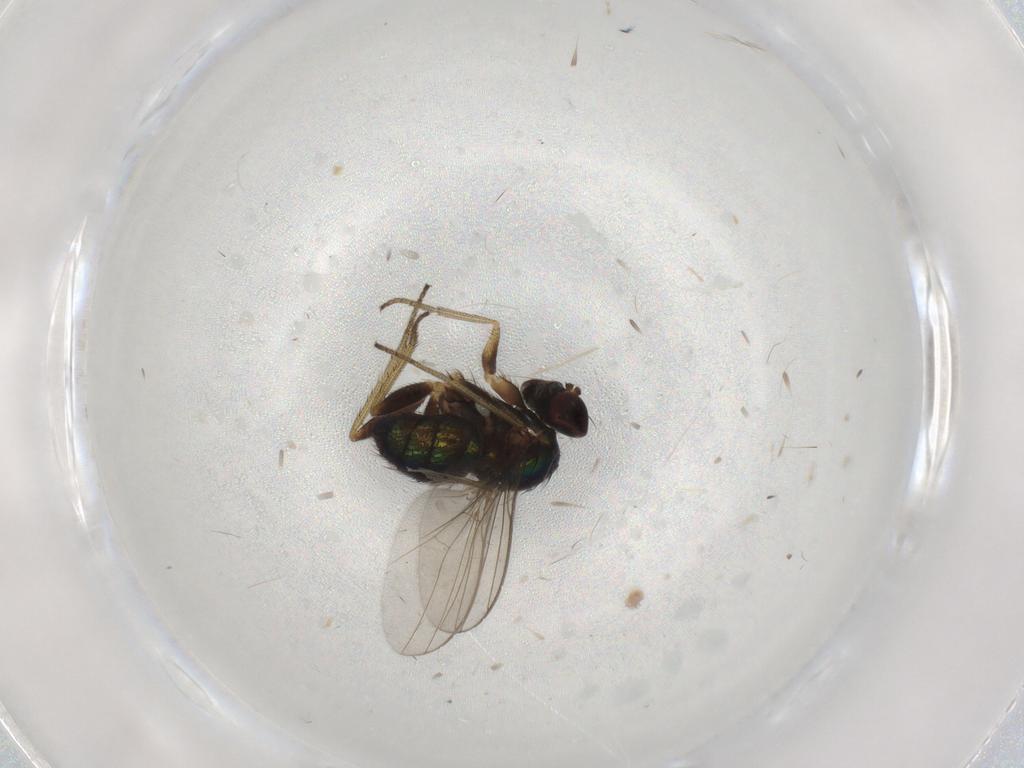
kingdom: Animalia
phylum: Arthropoda
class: Insecta
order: Diptera
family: Dolichopodidae
